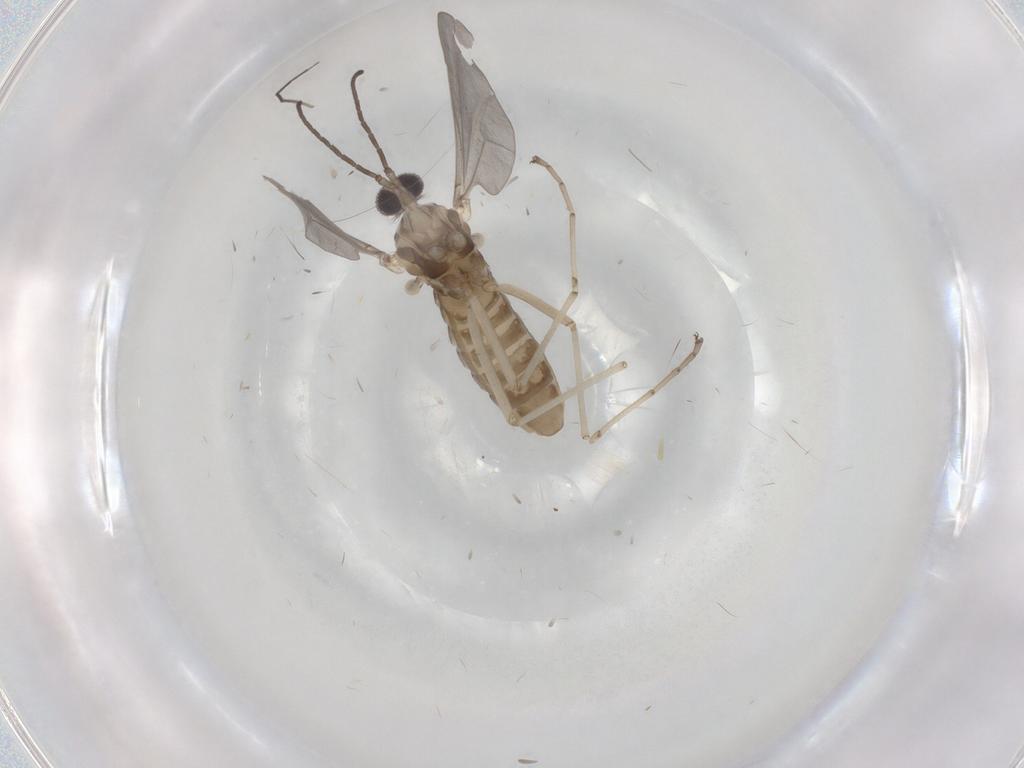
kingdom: Animalia
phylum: Arthropoda
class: Insecta
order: Diptera
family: Cecidomyiidae
